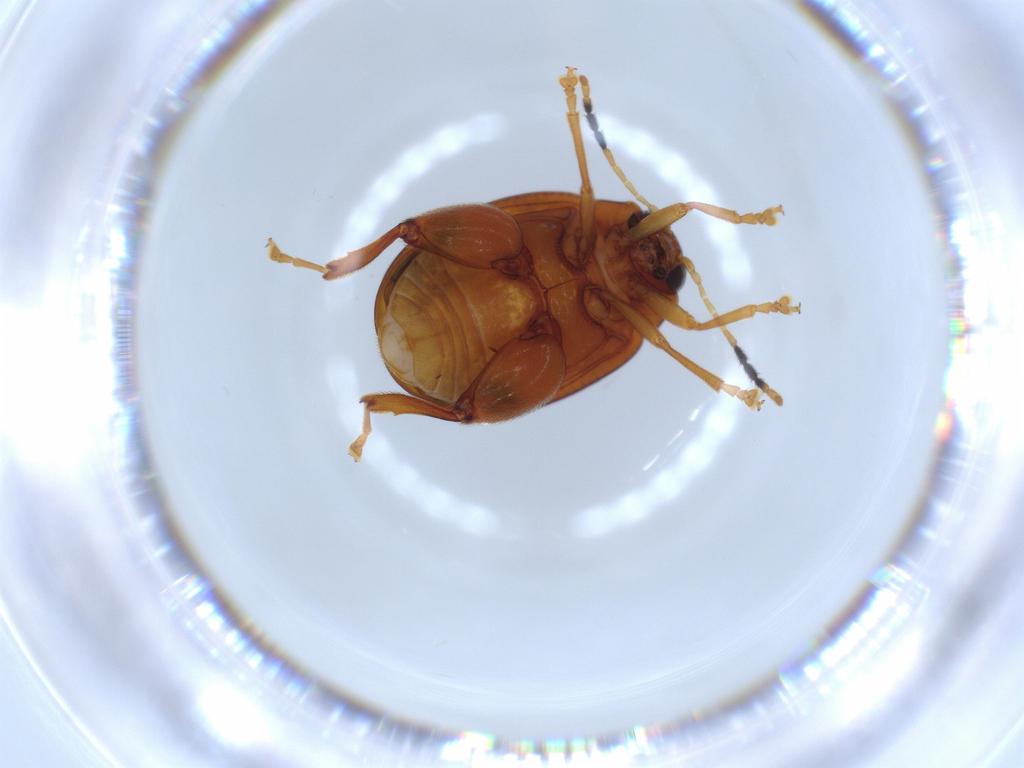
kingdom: Animalia
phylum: Arthropoda
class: Insecta
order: Coleoptera
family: Chrysomelidae
